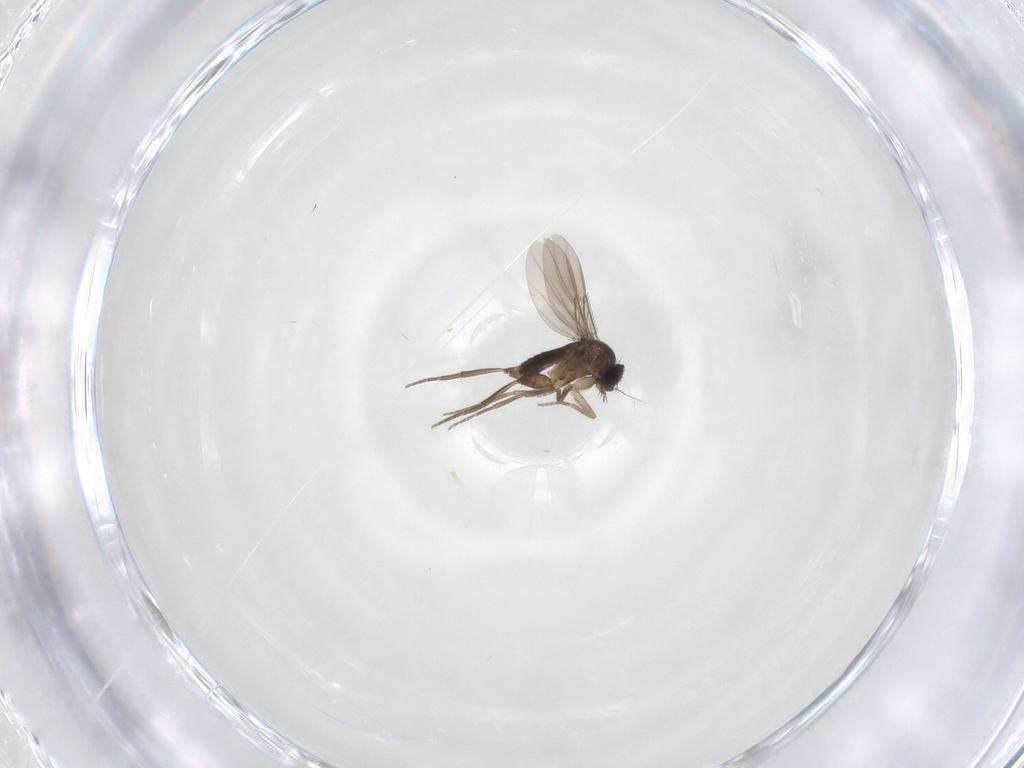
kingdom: Animalia
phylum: Arthropoda
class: Insecta
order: Diptera
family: Phoridae
